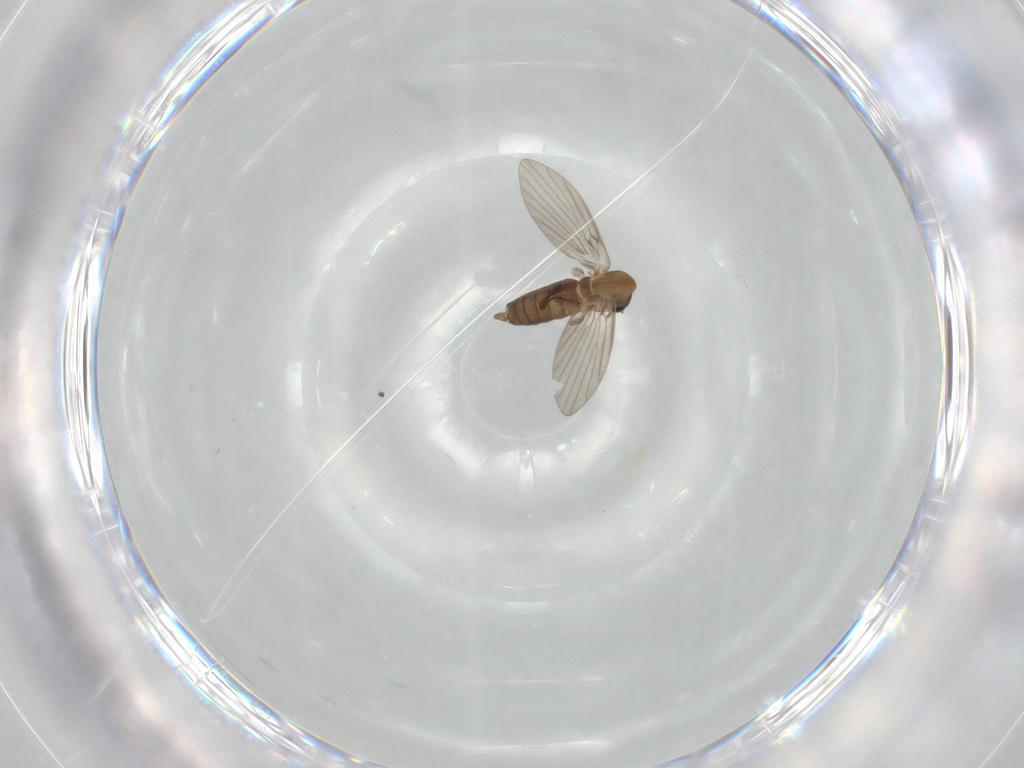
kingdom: Animalia
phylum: Arthropoda
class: Insecta
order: Diptera
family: Psychodidae
